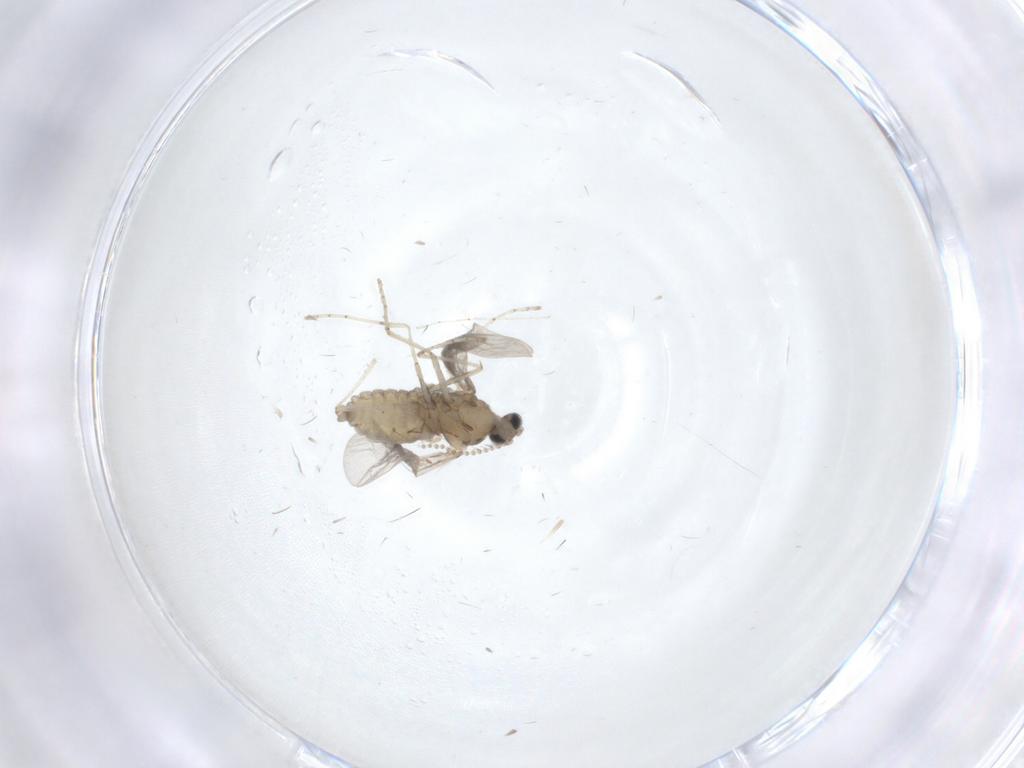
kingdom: Animalia
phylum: Arthropoda
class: Insecta
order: Diptera
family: Cecidomyiidae
